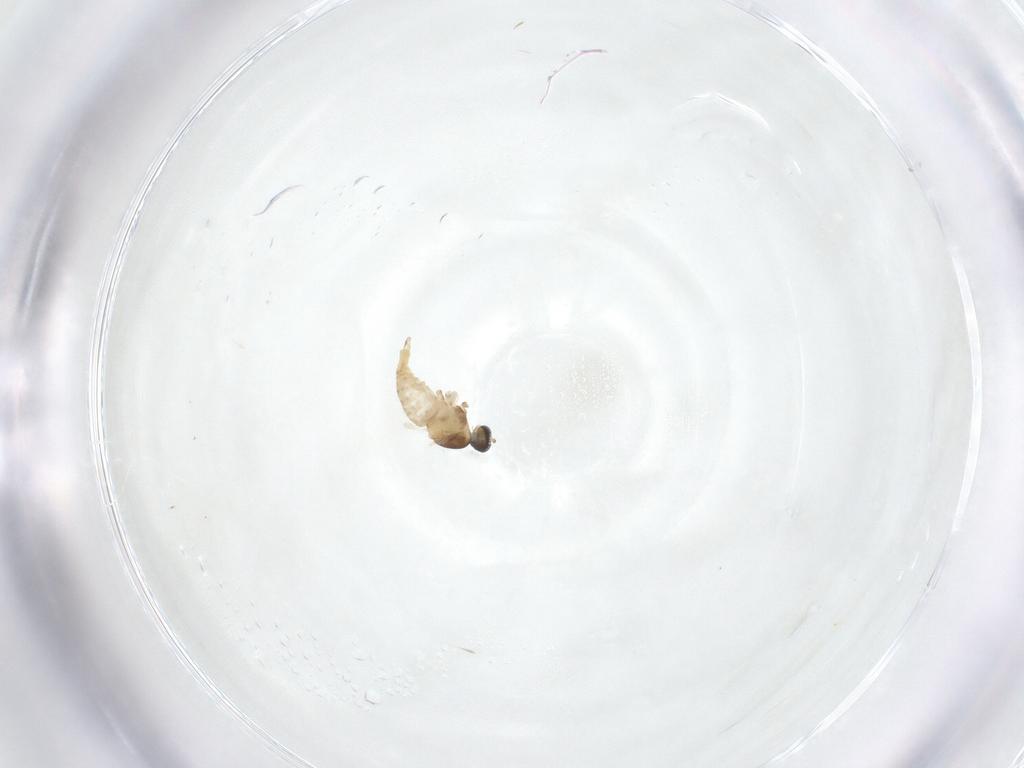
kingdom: Animalia
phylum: Arthropoda
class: Insecta
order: Diptera
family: Cecidomyiidae
